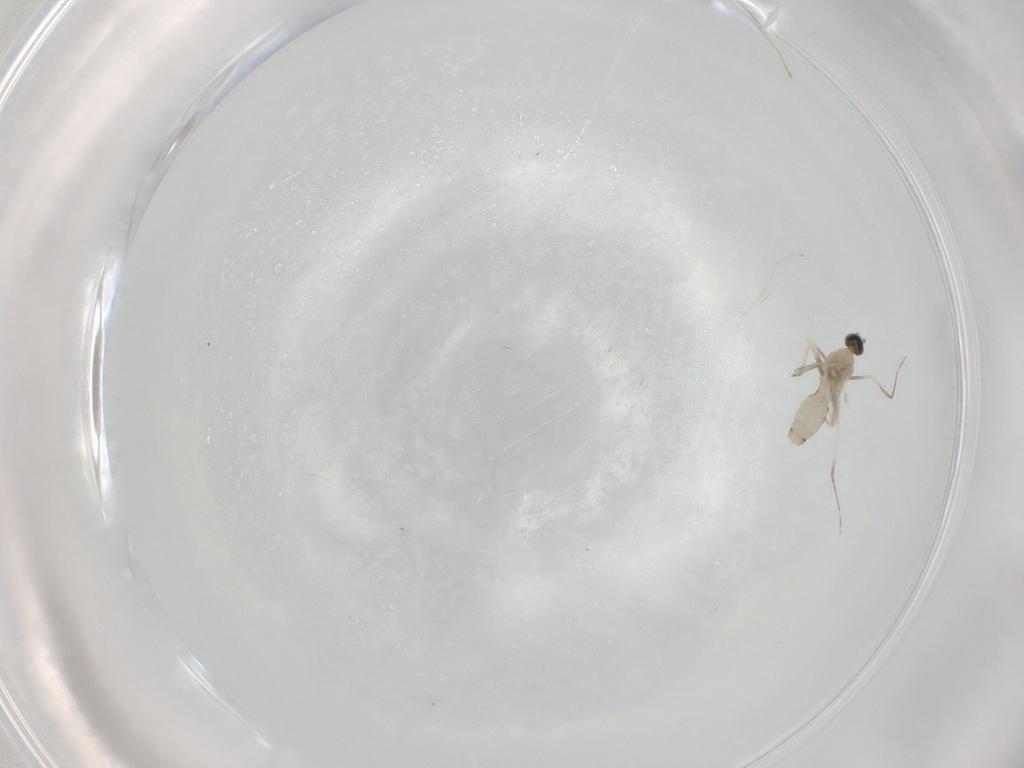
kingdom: Animalia
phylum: Arthropoda
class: Insecta
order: Diptera
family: Cecidomyiidae
